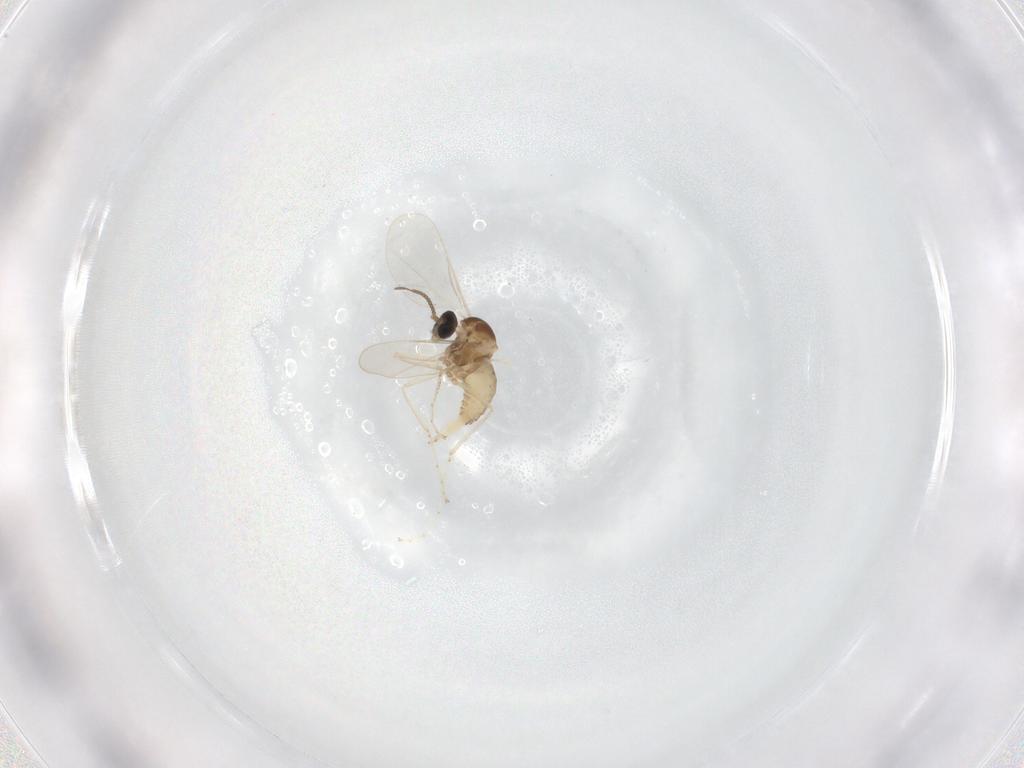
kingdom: Animalia
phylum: Arthropoda
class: Insecta
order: Diptera
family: Cecidomyiidae
